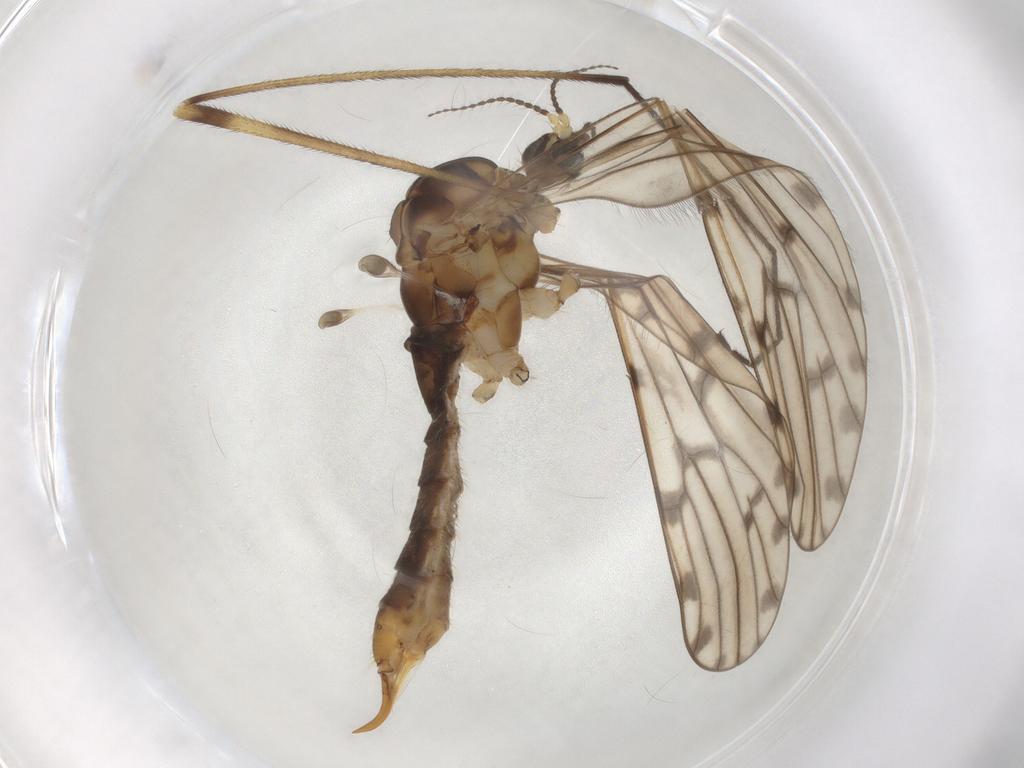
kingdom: Animalia
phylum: Arthropoda
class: Insecta
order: Diptera
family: Limoniidae
